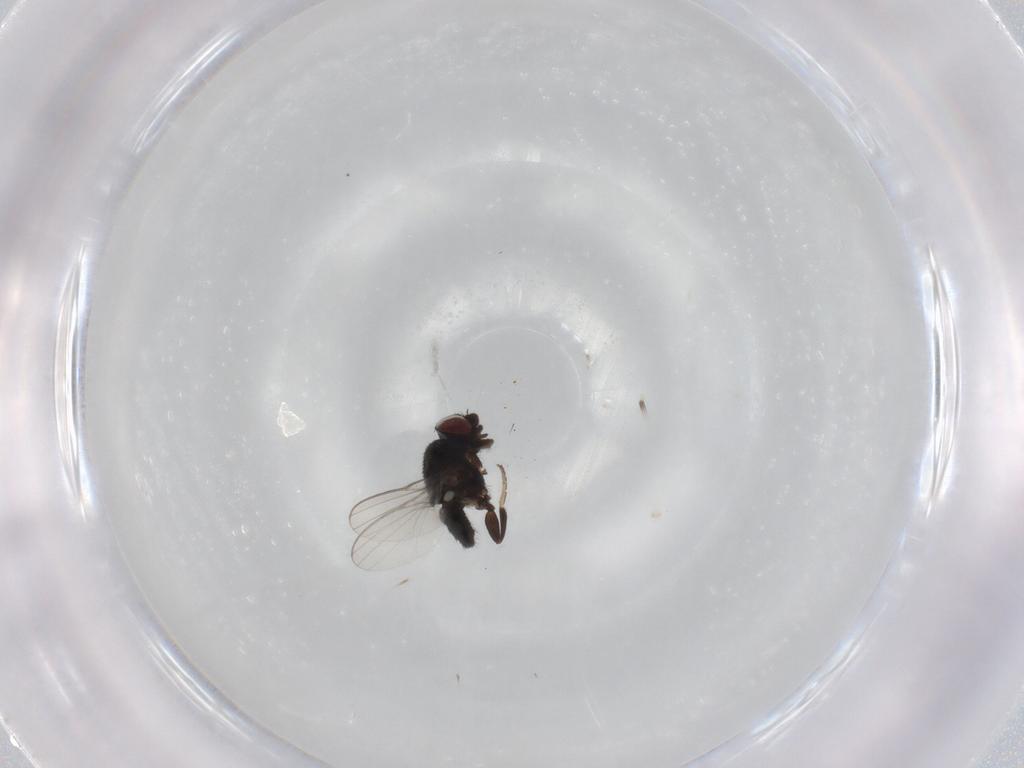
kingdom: Animalia
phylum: Arthropoda
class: Insecta
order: Diptera
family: Milichiidae
